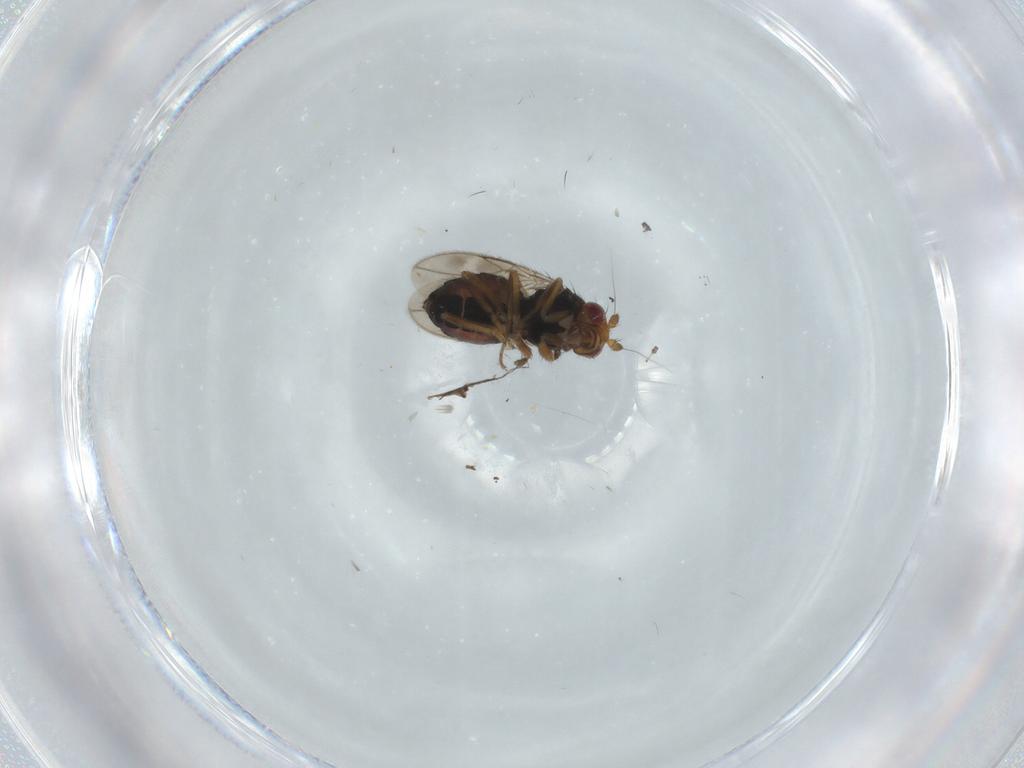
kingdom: Animalia
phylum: Arthropoda
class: Insecta
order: Diptera
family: Sphaeroceridae
